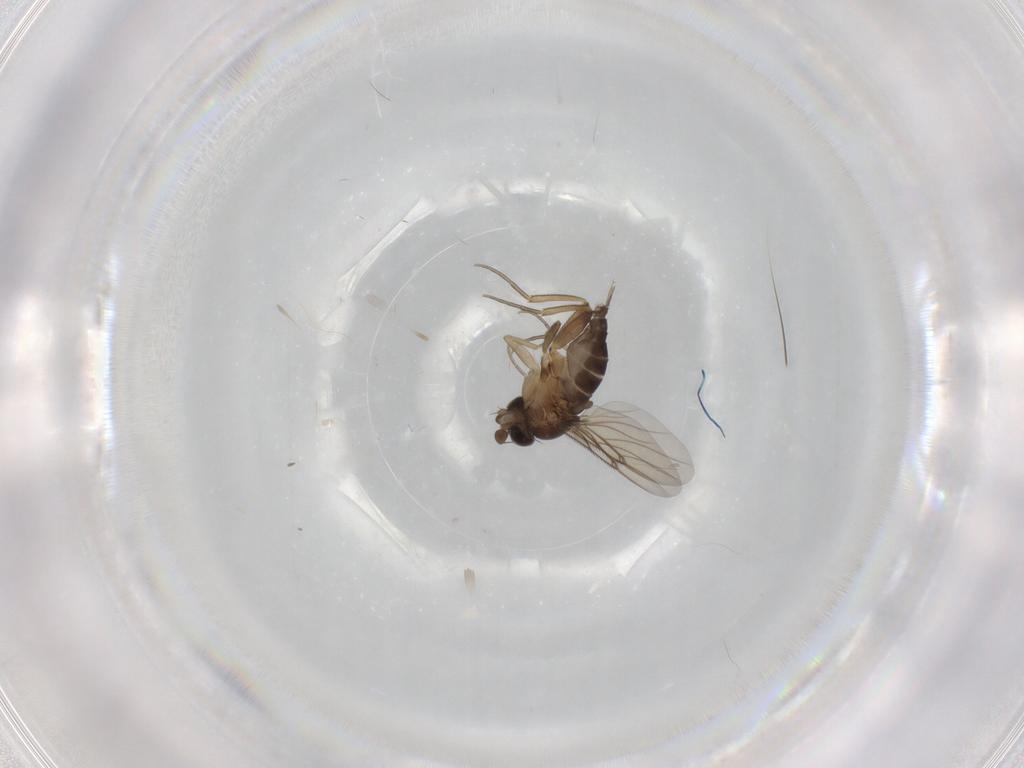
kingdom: Animalia
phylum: Arthropoda
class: Insecta
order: Diptera
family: Phoridae
